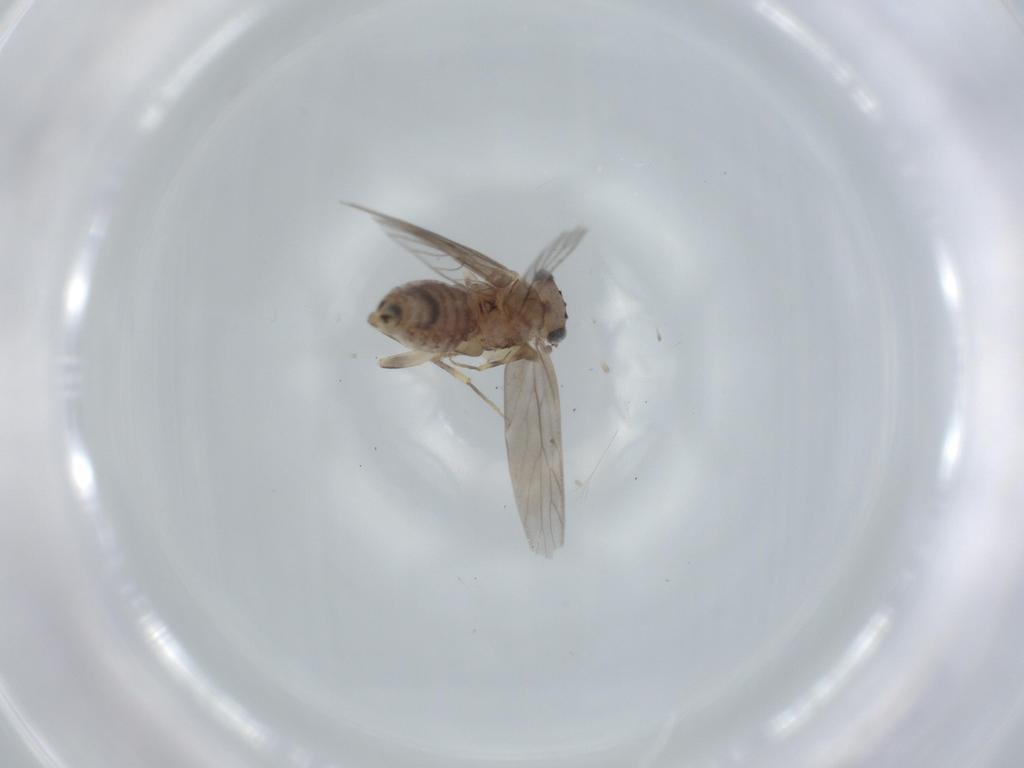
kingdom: Animalia
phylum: Arthropoda
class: Insecta
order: Psocodea
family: Lepidopsocidae
